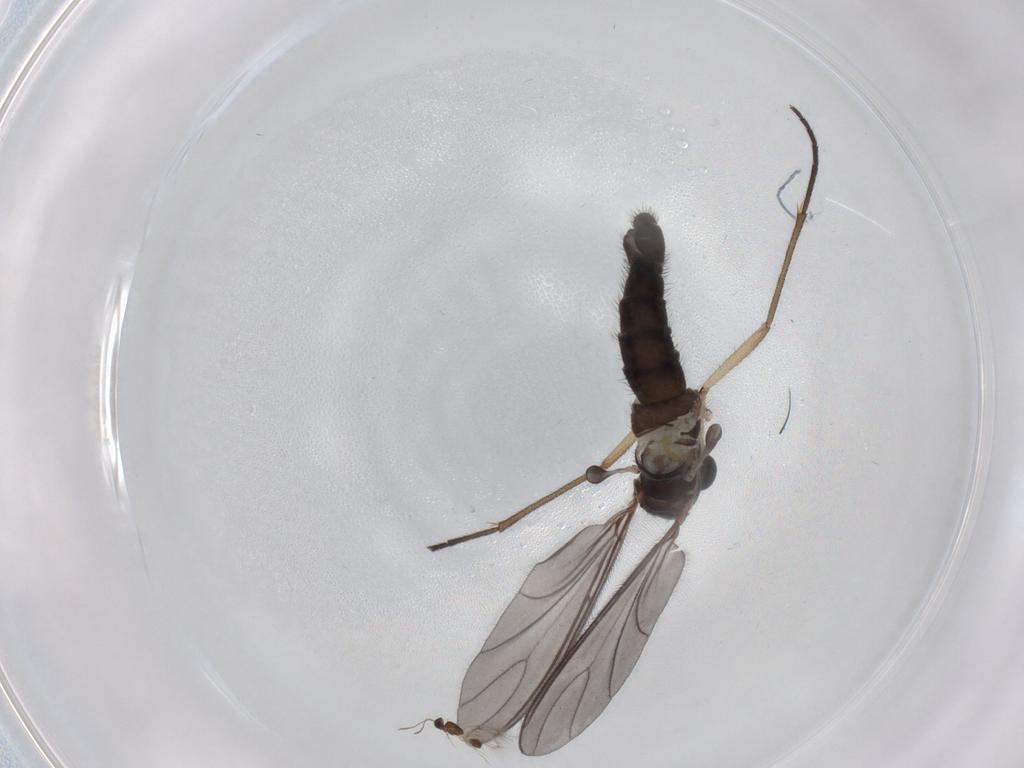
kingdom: Animalia
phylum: Arthropoda
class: Insecta
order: Diptera
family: Sciaridae
